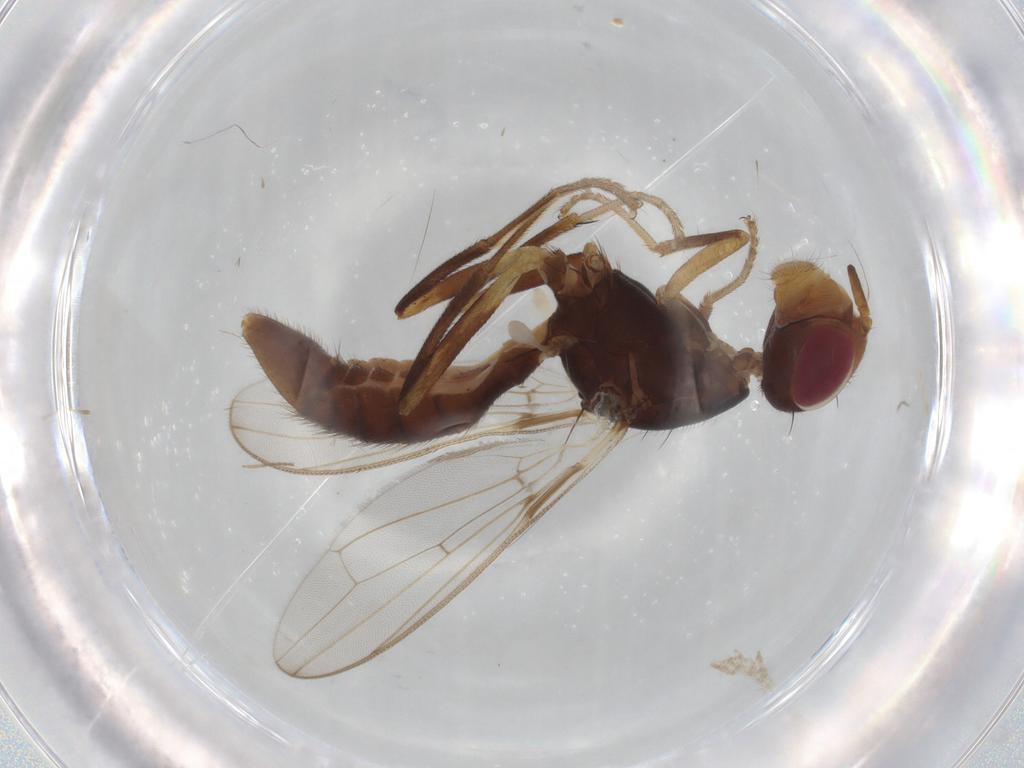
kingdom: Animalia
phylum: Arthropoda
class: Insecta
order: Diptera
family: Richardiidae
